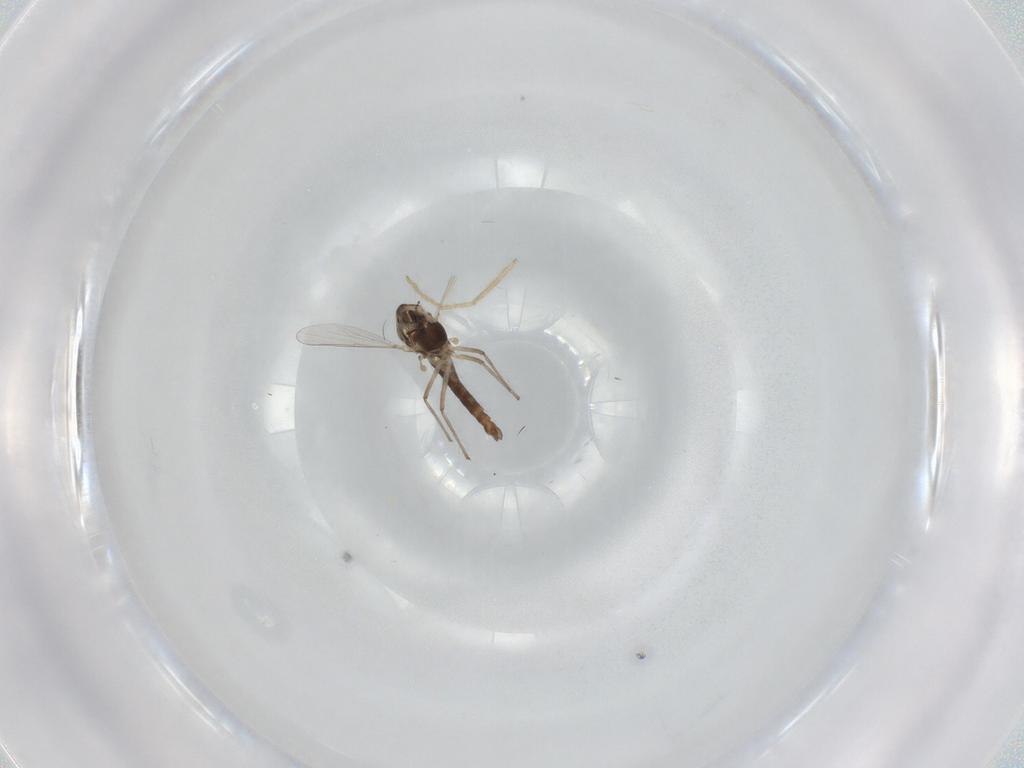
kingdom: Animalia
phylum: Arthropoda
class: Insecta
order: Diptera
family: Chironomidae
